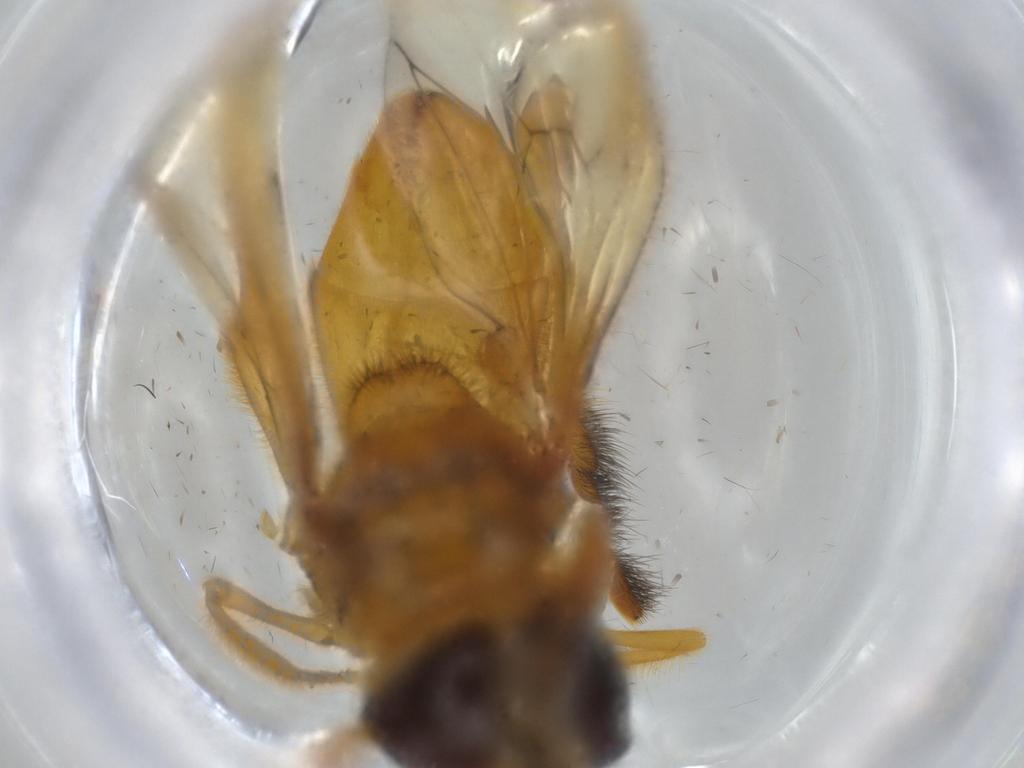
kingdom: Animalia
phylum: Arthropoda
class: Insecta
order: Diptera
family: Syrphidae
